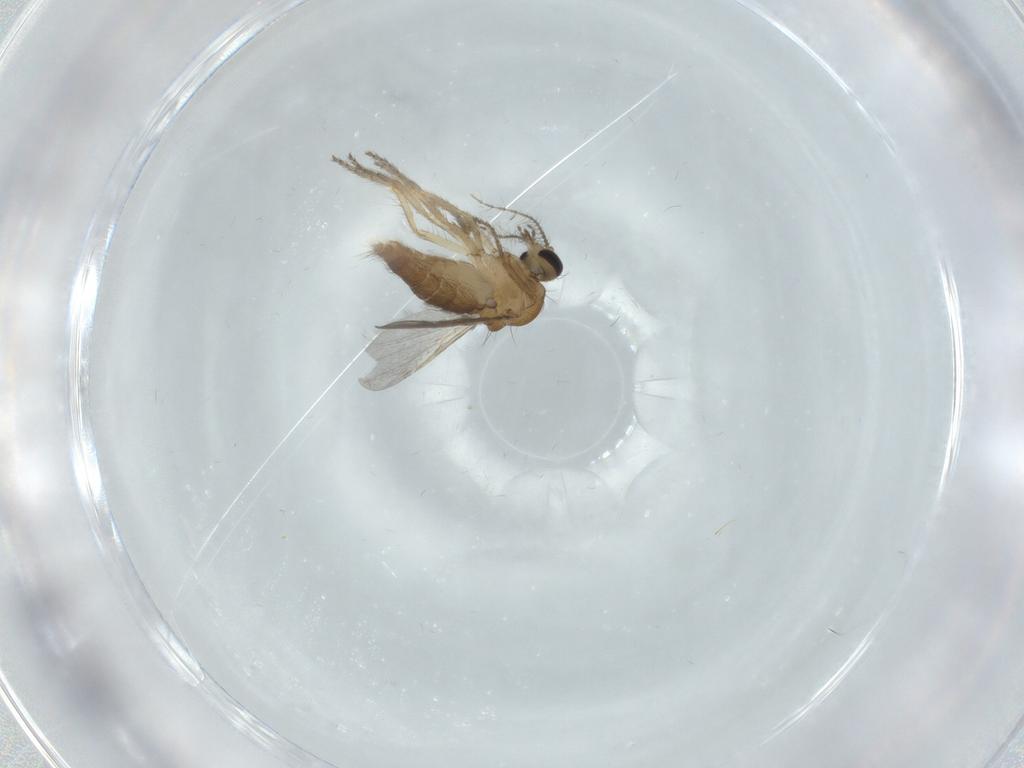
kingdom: Animalia
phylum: Arthropoda
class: Insecta
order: Diptera
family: Ceratopogonidae
